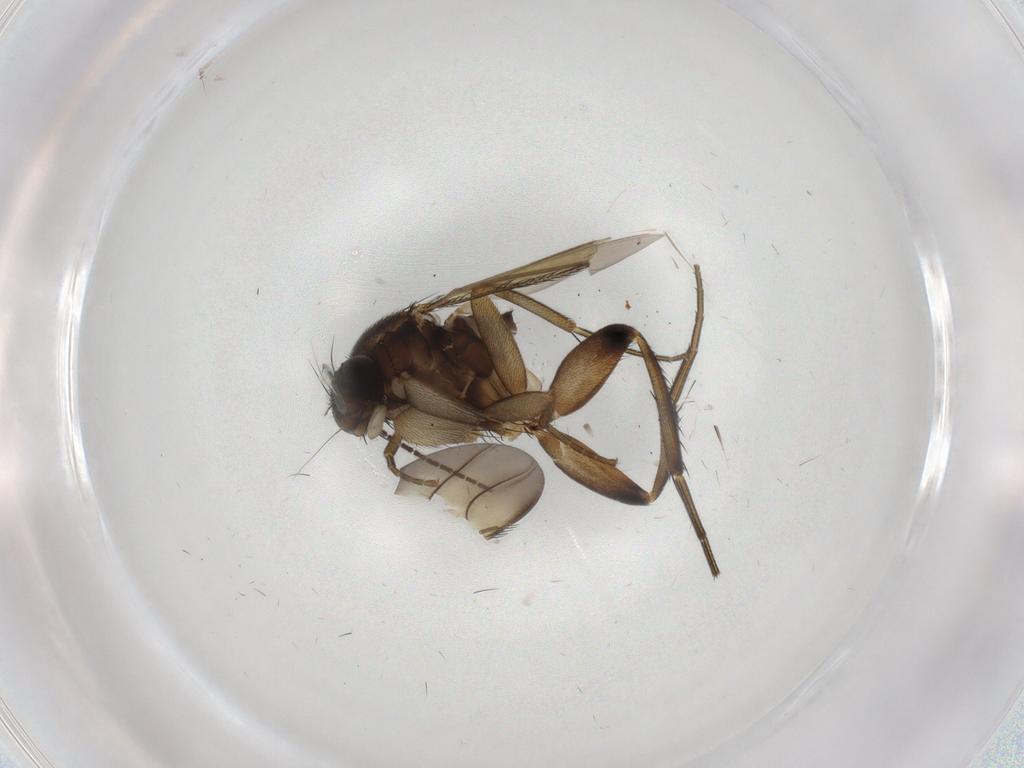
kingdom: Animalia
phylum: Arthropoda
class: Insecta
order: Diptera
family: Phoridae
